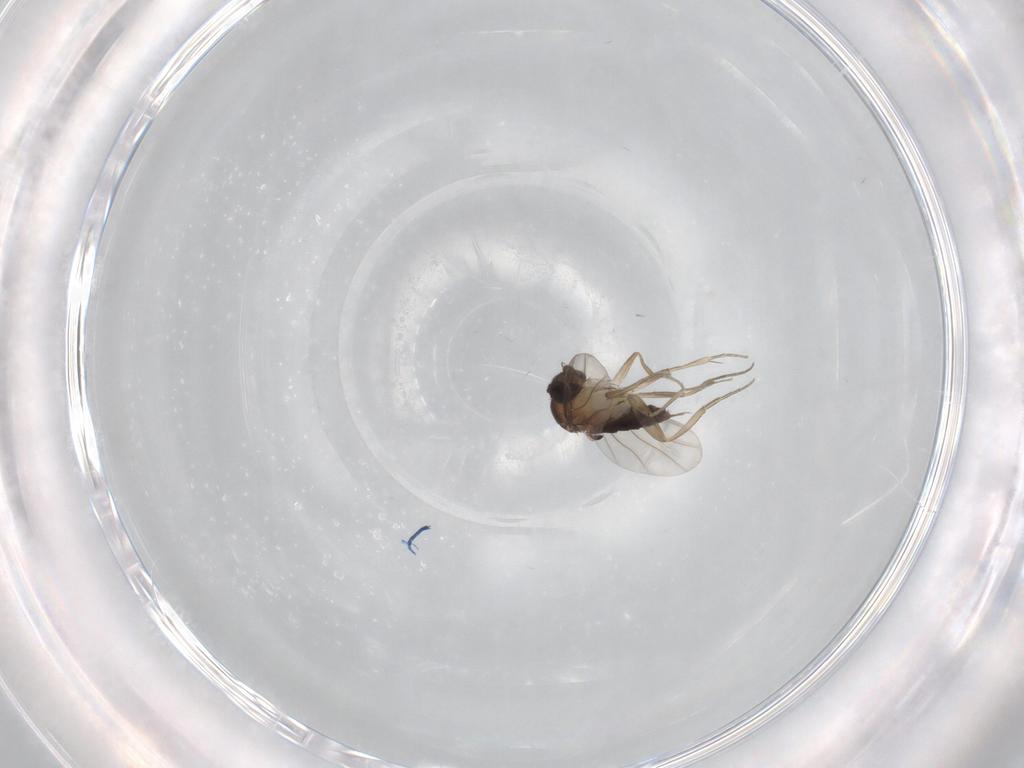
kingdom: Animalia
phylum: Arthropoda
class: Insecta
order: Diptera
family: Phoridae
